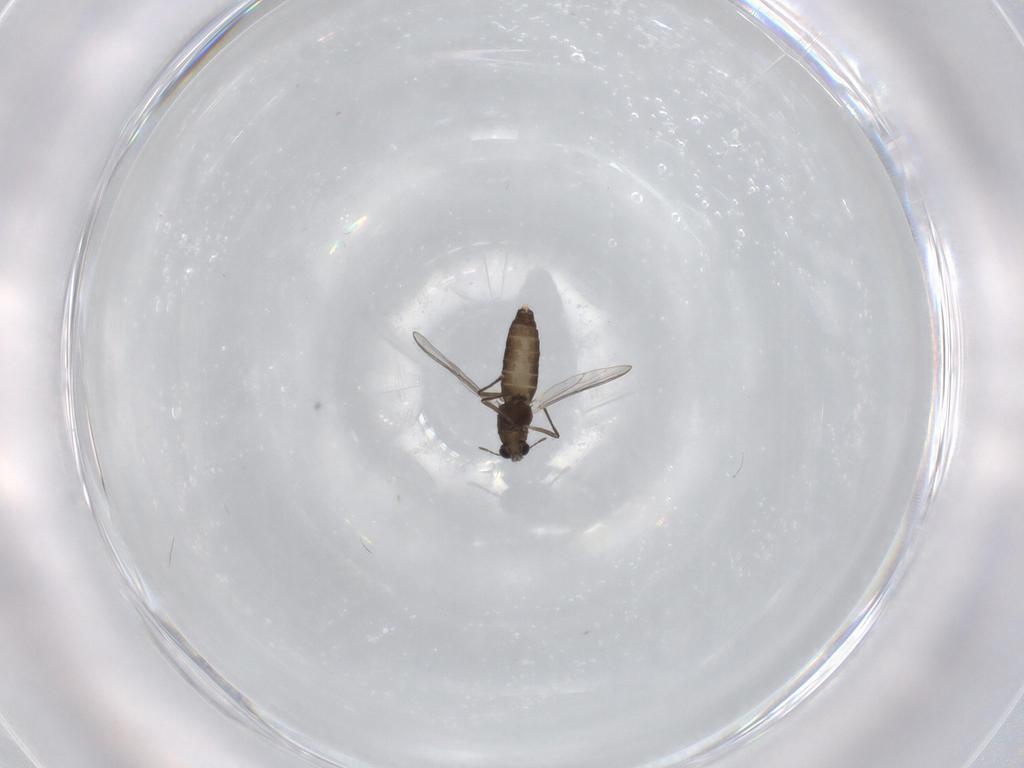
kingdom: Animalia
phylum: Arthropoda
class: Insecta
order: Diptera
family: Chironomidae
